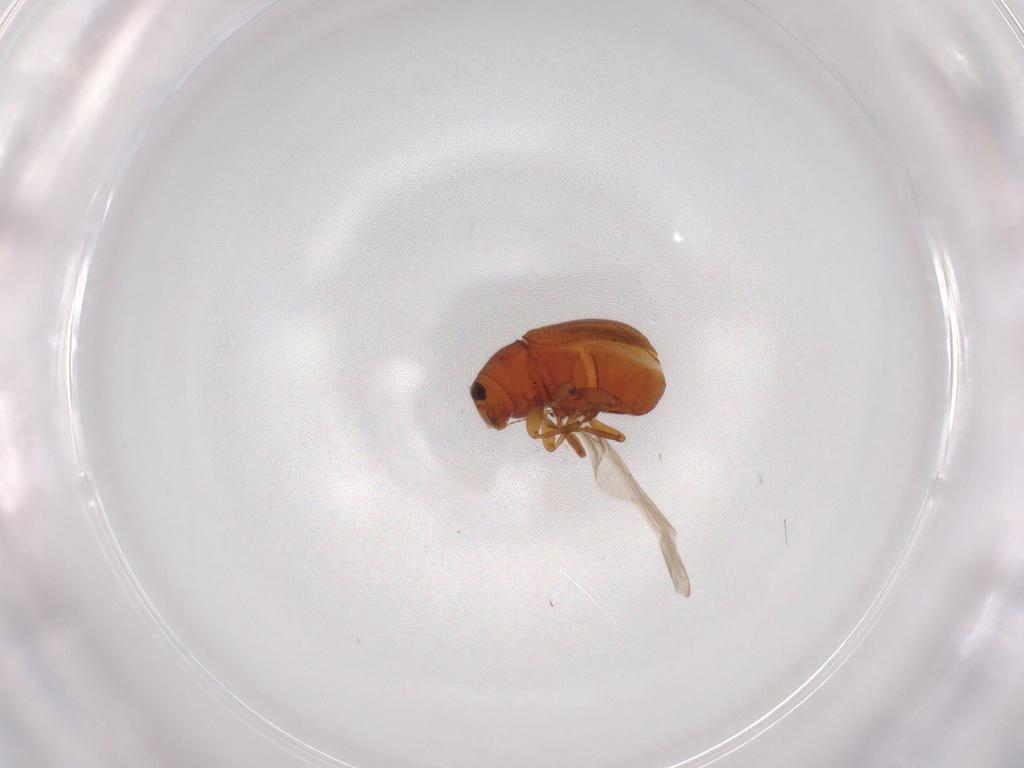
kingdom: Animalia
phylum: Arthropoda
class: Insecta
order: Coleoptera
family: Anthribidae
